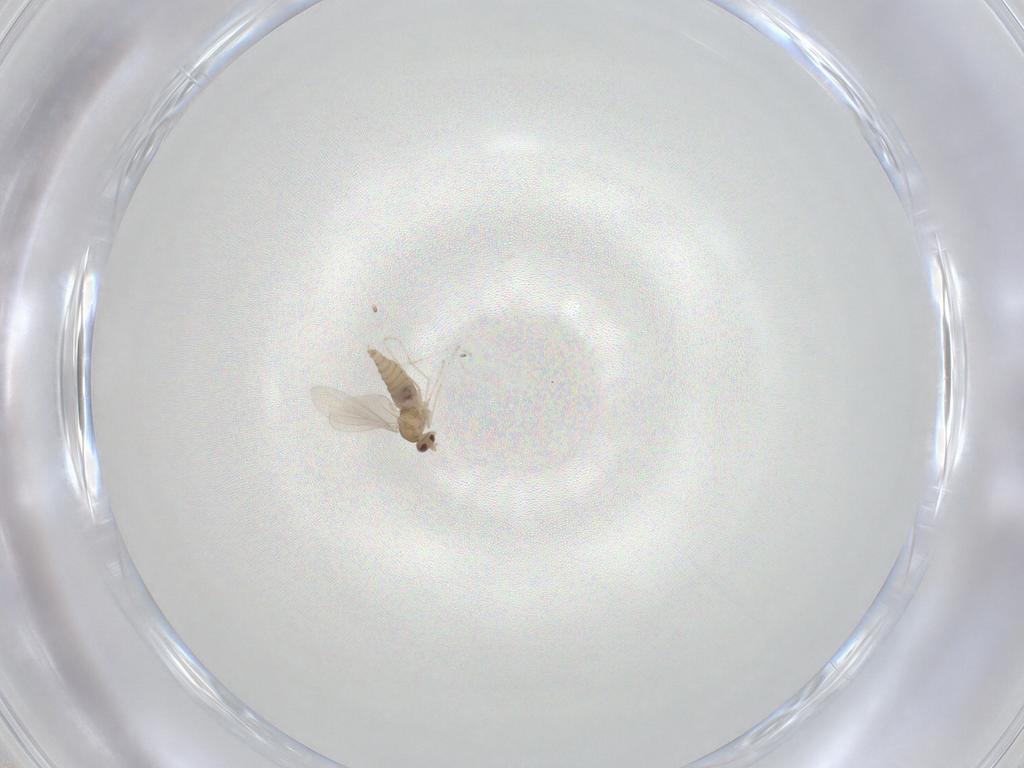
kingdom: Animalia
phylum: Arthropoda
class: Insecta
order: Diptera
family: Cecidomyiidae
